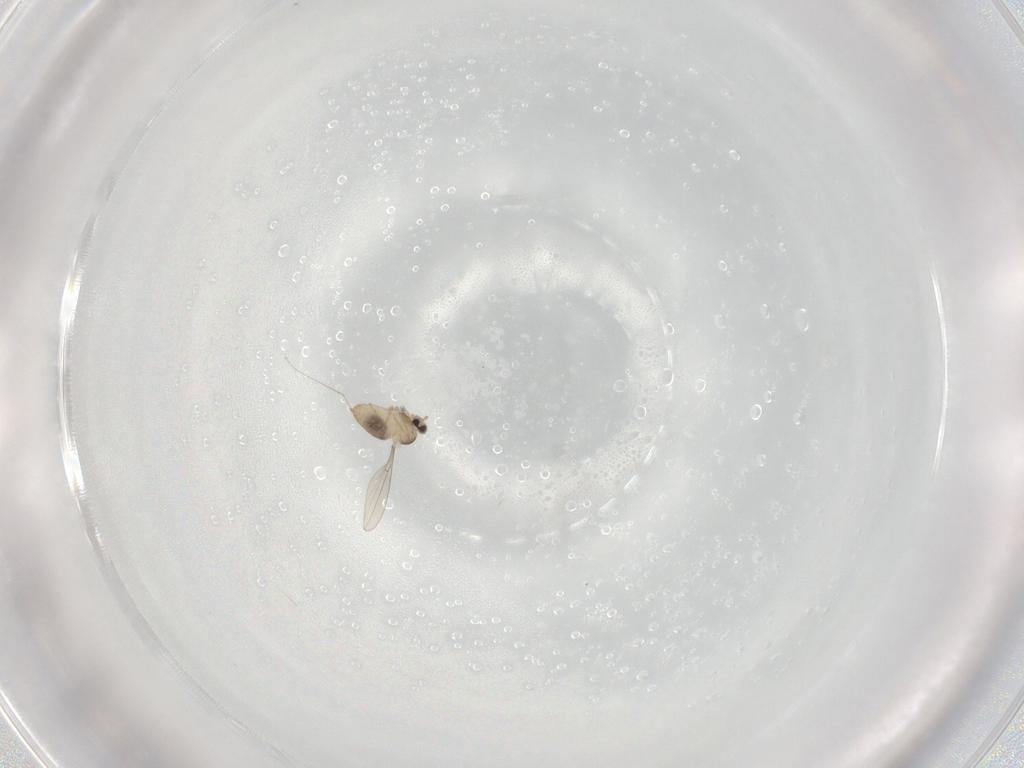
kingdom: Animalia
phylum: Arthropoda
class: Insecta
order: Diptera
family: Cecidomyiidae
